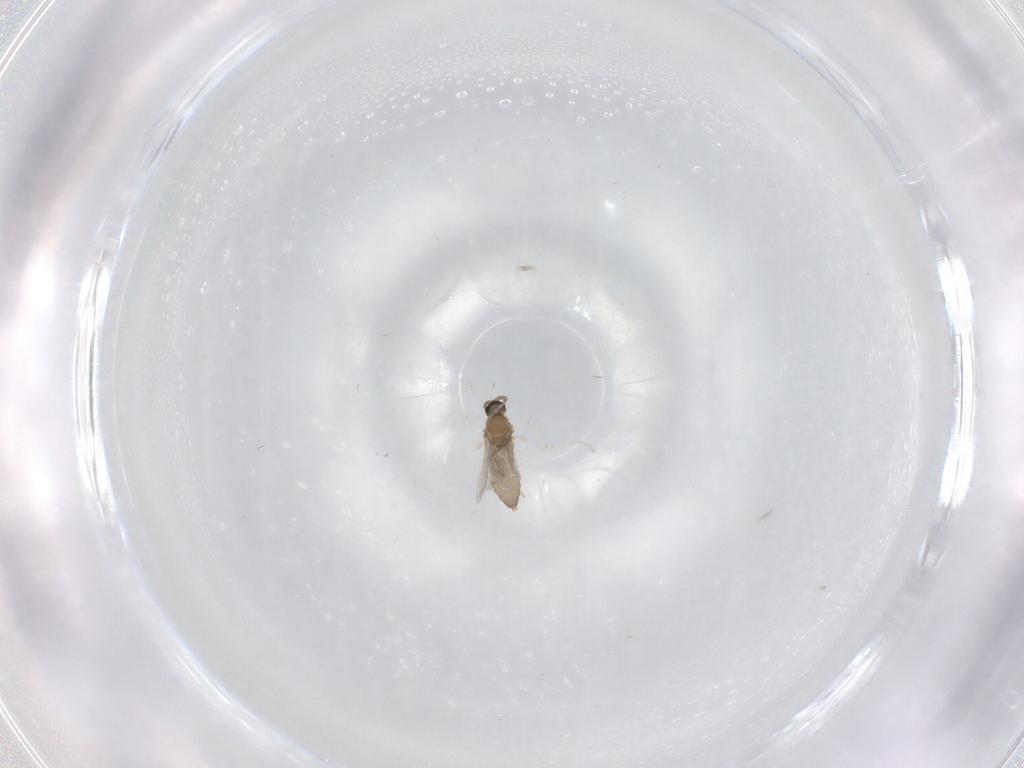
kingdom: Animalia
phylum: Arthropoda
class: Insecta
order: Diptera
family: Cecidomyiidae
